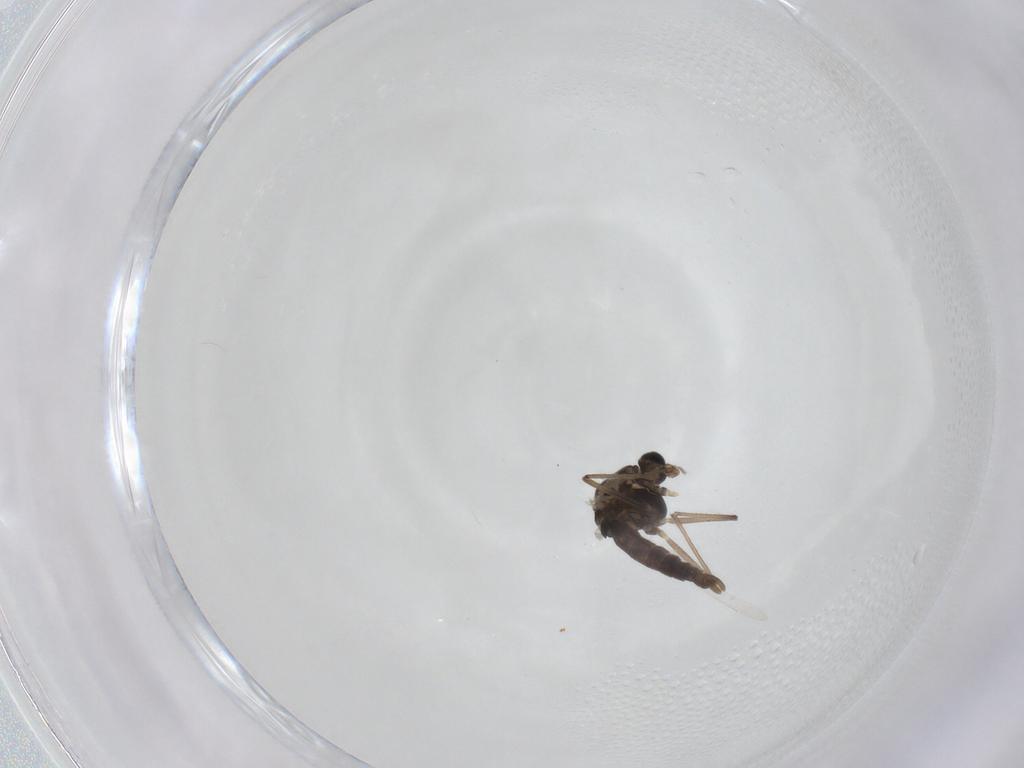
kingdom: Animalia
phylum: Arthropoda
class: Insecta
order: Diptera
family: Chironomidae
